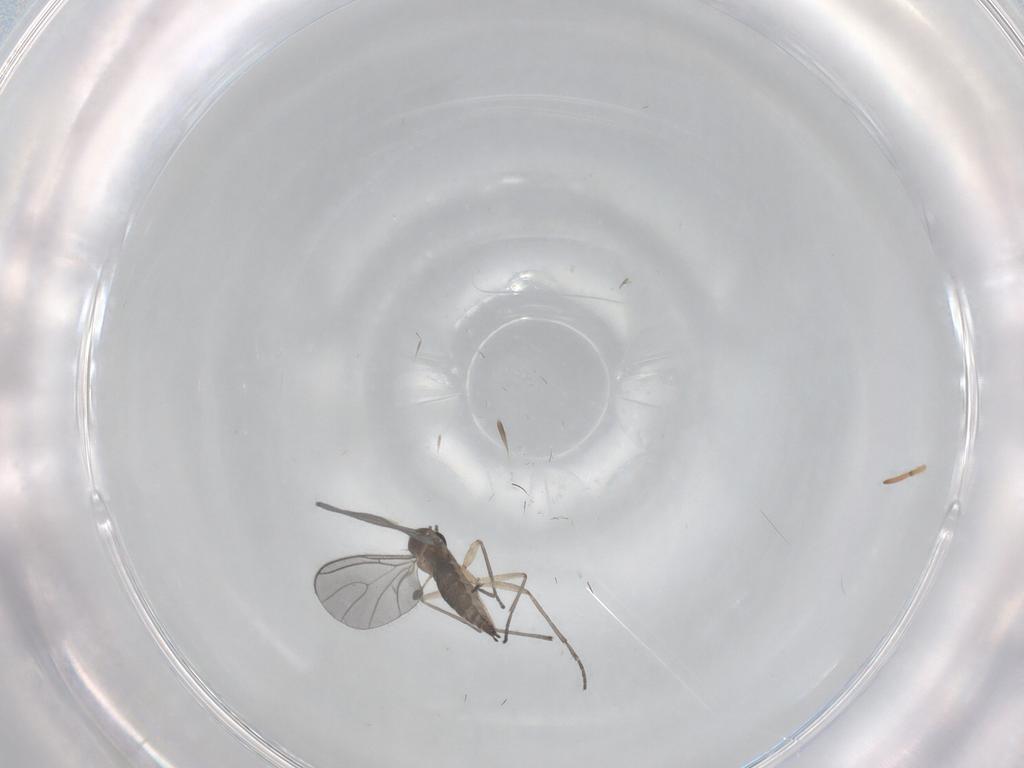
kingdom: Animalia
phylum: Arthropoda
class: Insecta
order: Diptera
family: Sciaridae
